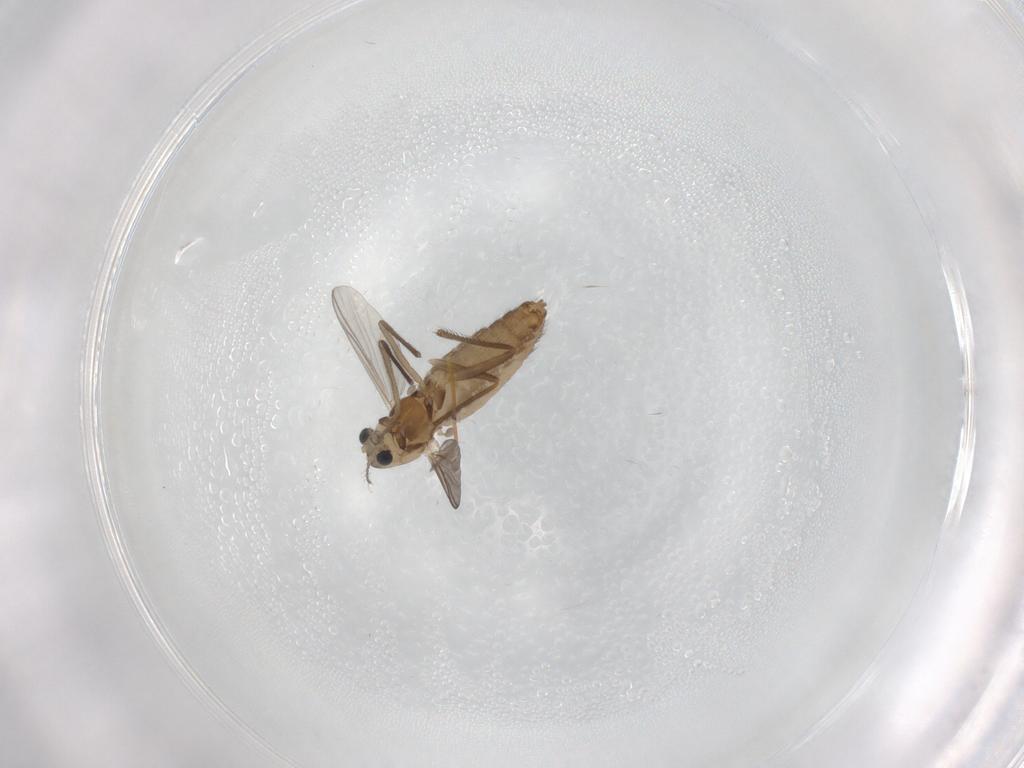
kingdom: Animalia
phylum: Arthropoda
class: Insecta
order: Diptera
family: Chironomidae
